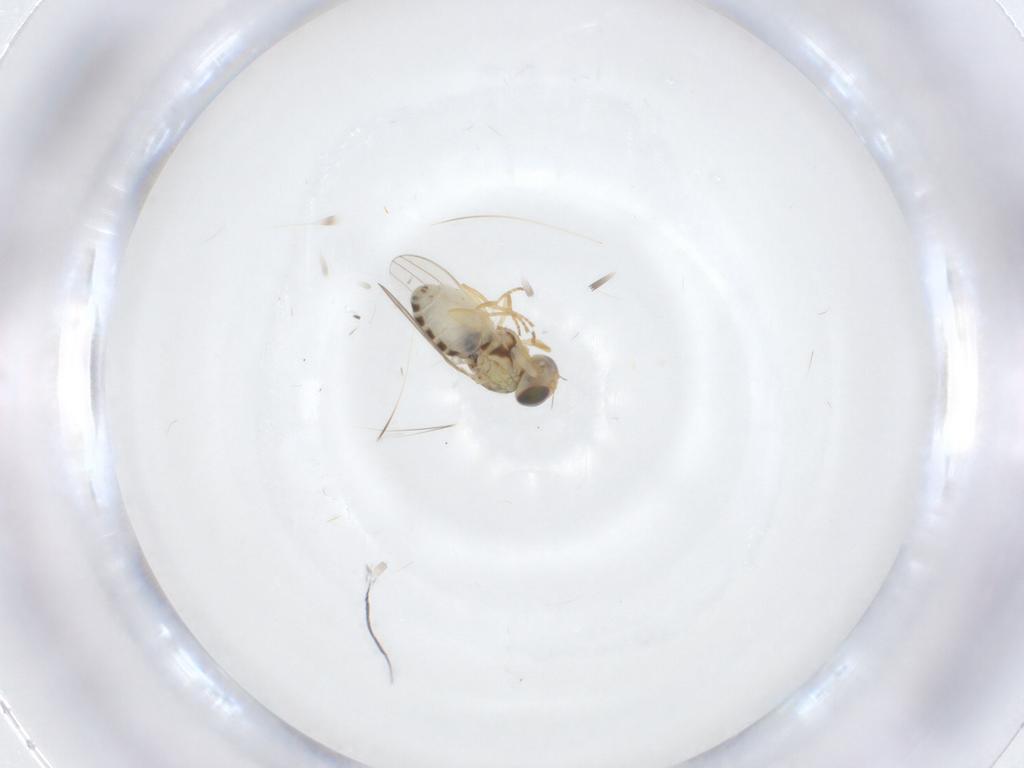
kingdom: Animalia
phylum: Arthropoda
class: Insecta
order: Diptera
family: Chyromyidae
